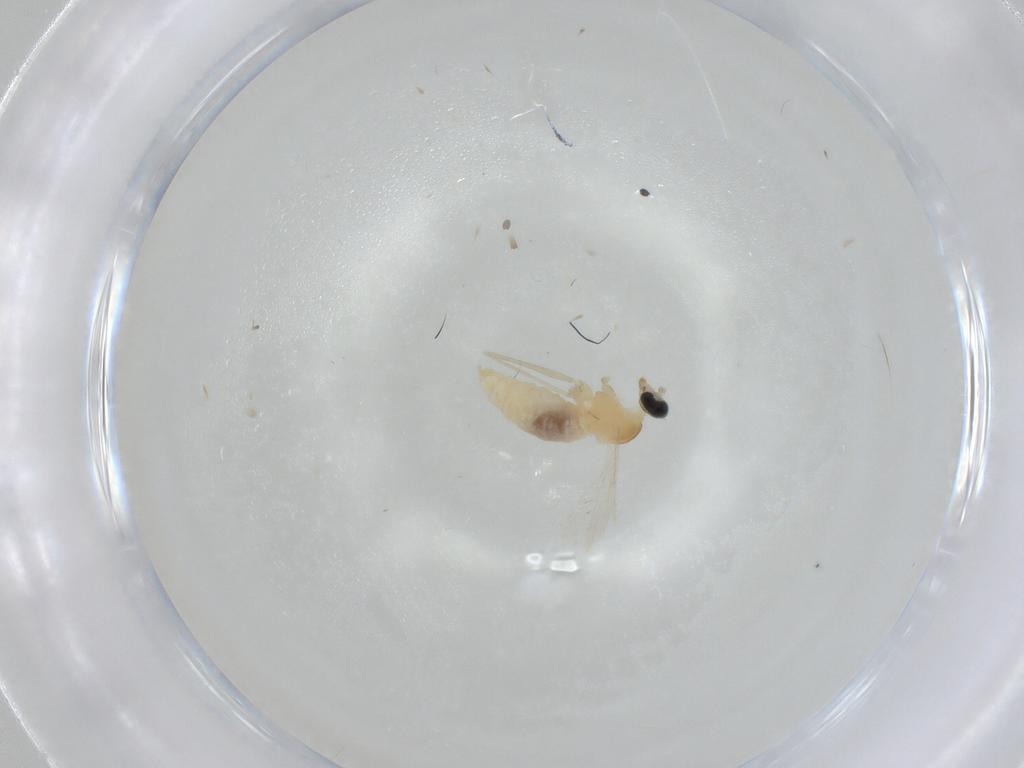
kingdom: Animalia
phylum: Arthropoda
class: Insecta
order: Diptera
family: Cecidomyiidae
